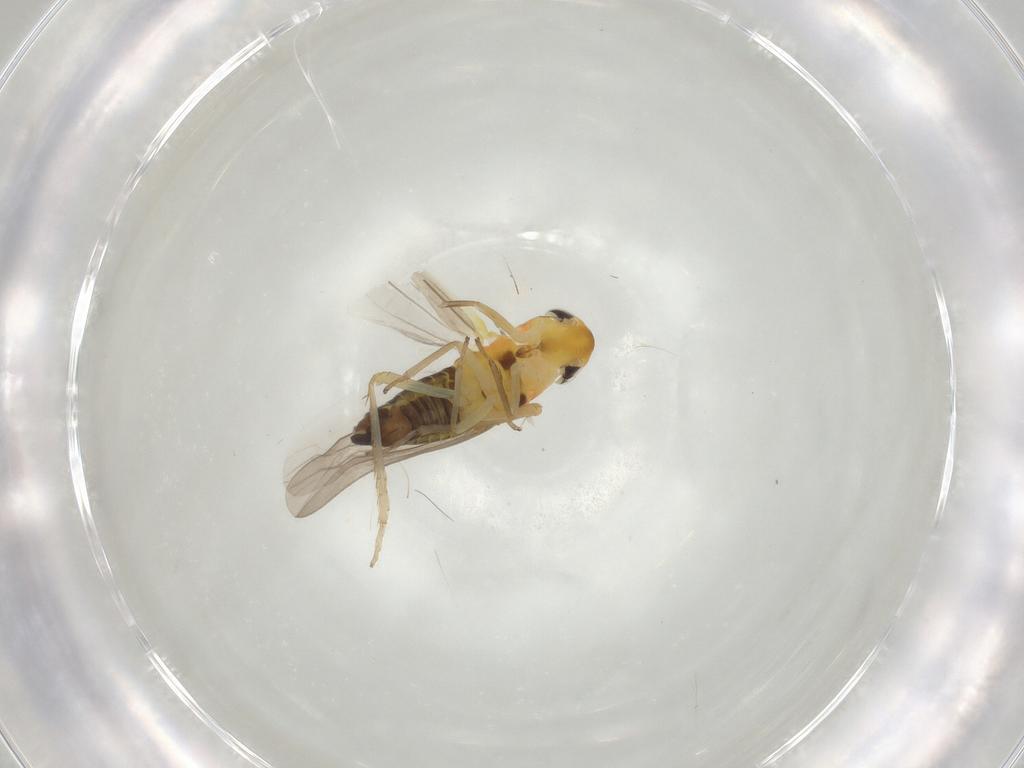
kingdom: Animalia
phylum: Arthropoda
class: Insecta
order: Hemiptera
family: Cicadellidae
